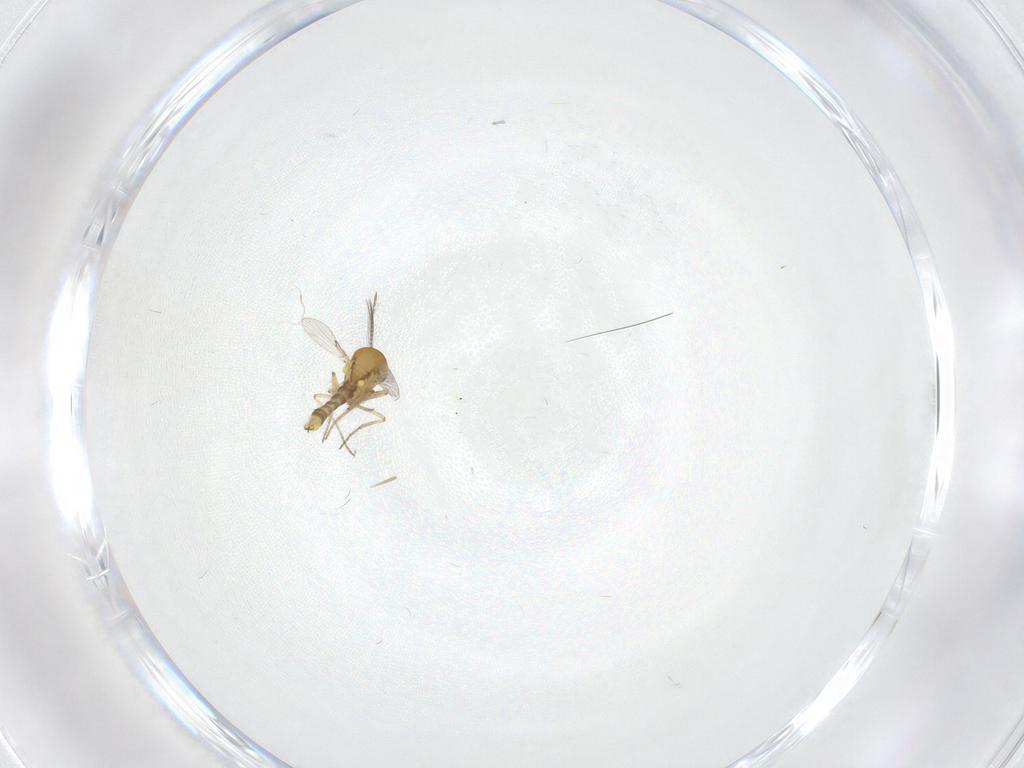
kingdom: Animalia
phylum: Arthropoda
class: Insecta
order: Diptera
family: Ceratopogonidae
